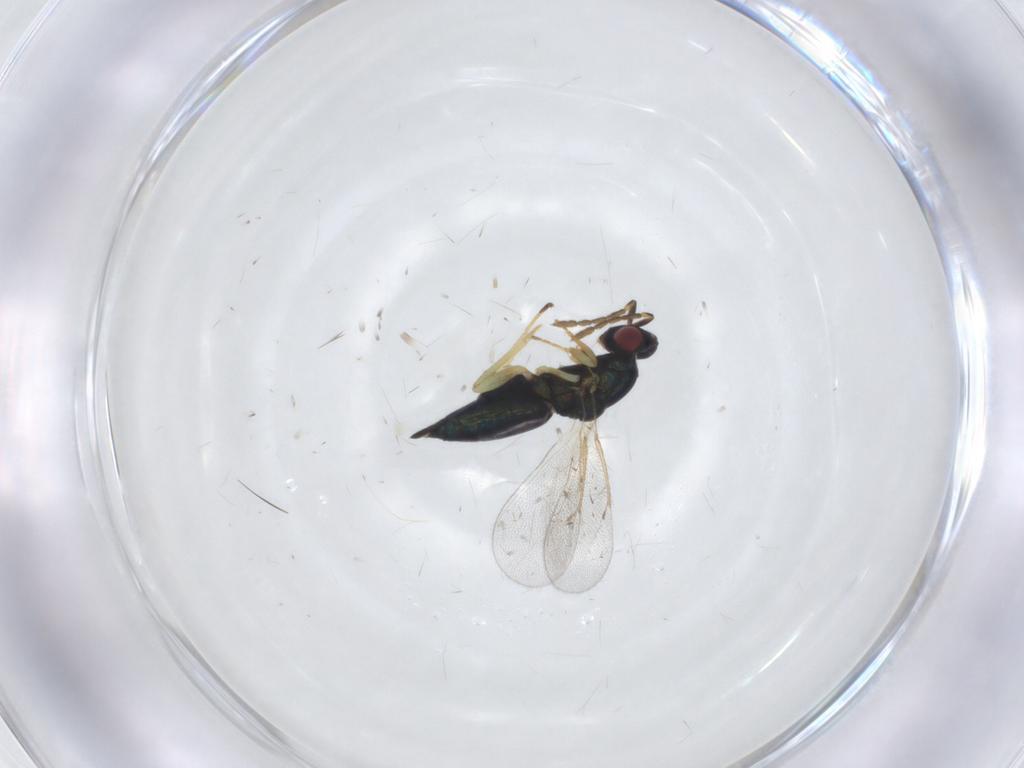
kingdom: Animalia
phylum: Arthropoda
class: Insecta
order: Hymenoptera
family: Eulophidae
